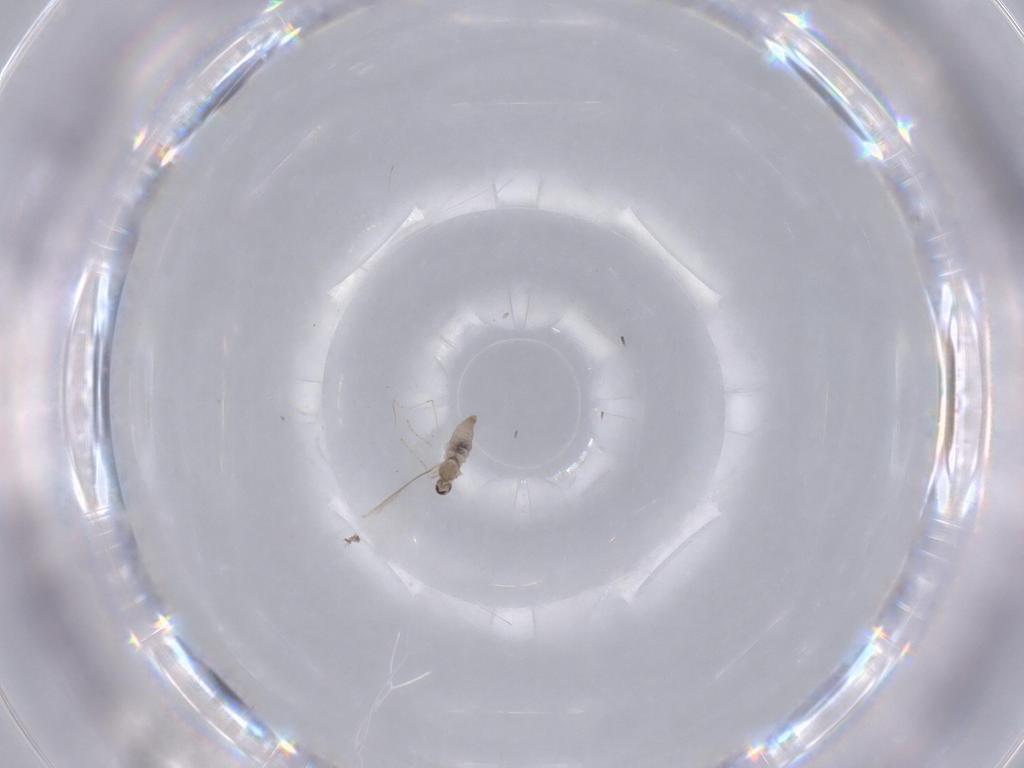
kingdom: Animalia
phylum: Arthropoda
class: Insecta
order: Diptera
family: Cecidomyiidae
